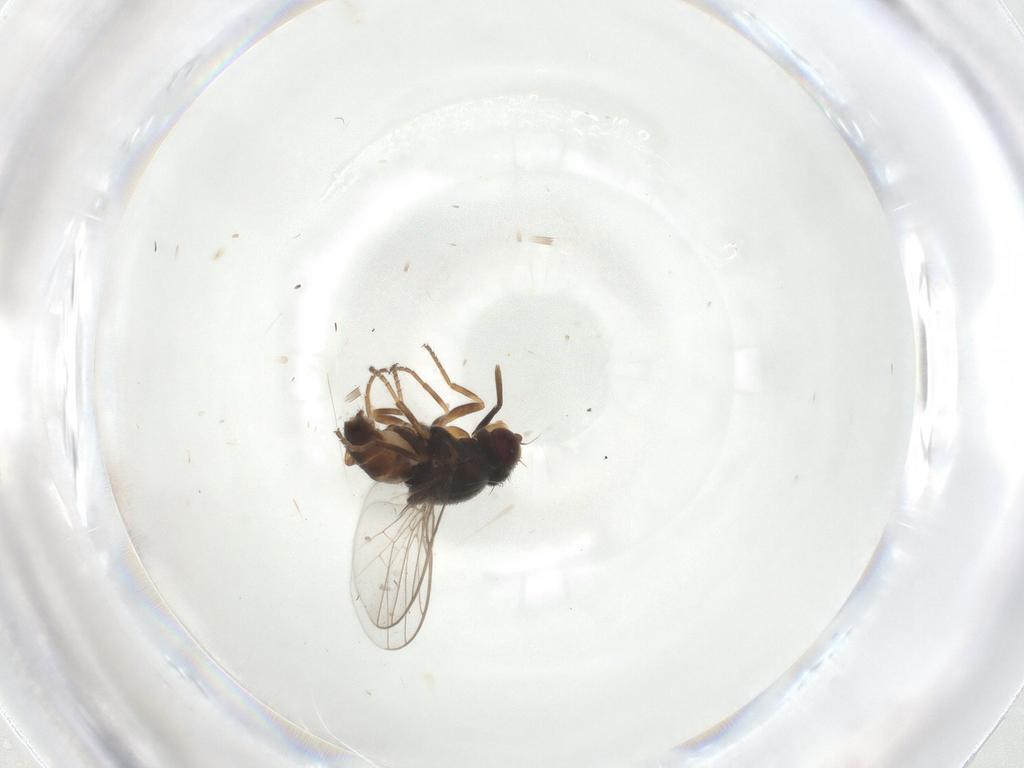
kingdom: Animalia
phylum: Arthropoda
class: Insecta
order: Diptera
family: Chloropidae
